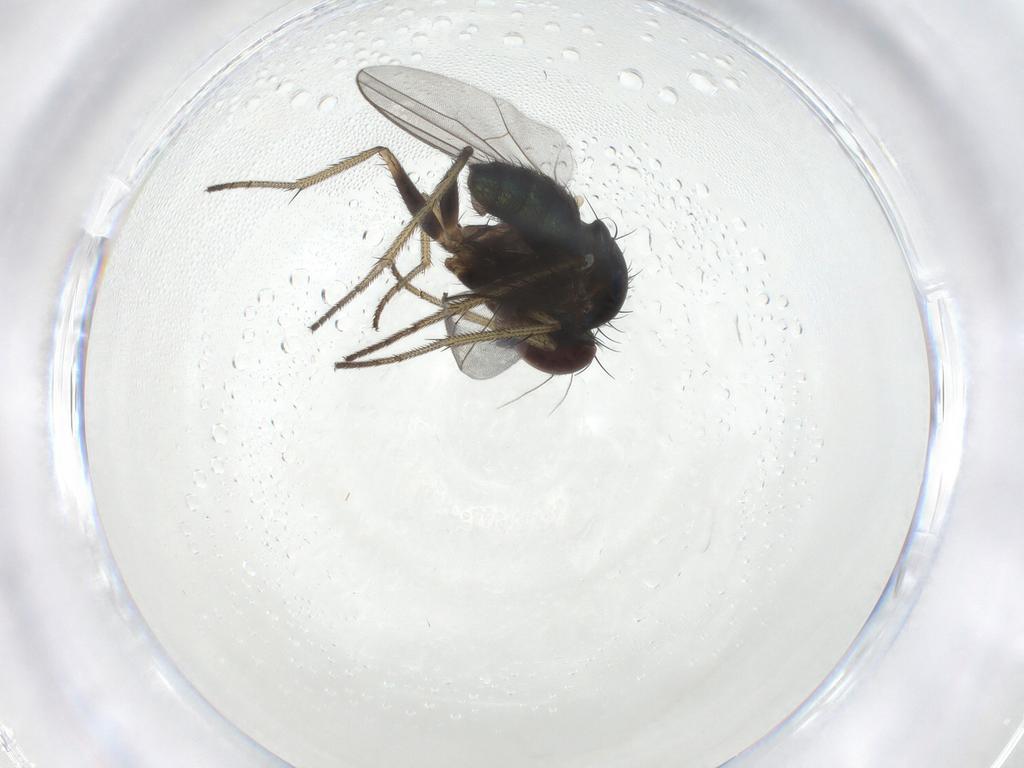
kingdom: Animalia
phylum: Arthropoda
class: Insecta
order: Diptera
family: Dolichopodidae
